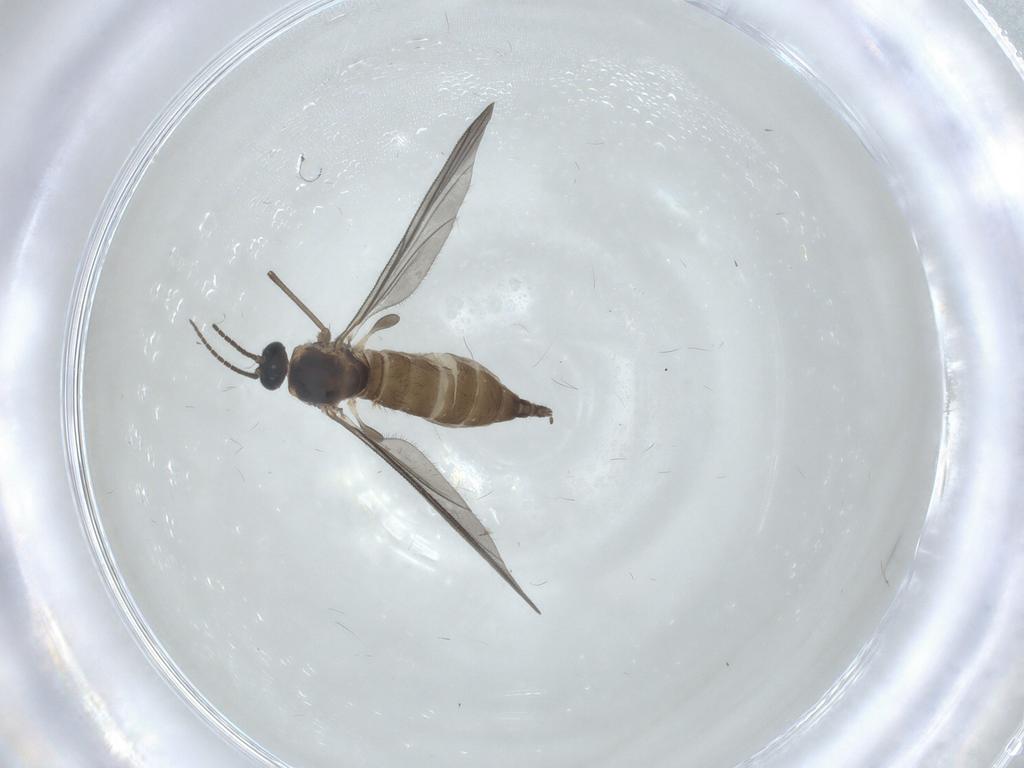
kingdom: Animalia
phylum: Arthropoda
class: Insecta
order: Diptera
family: Sciaridae
